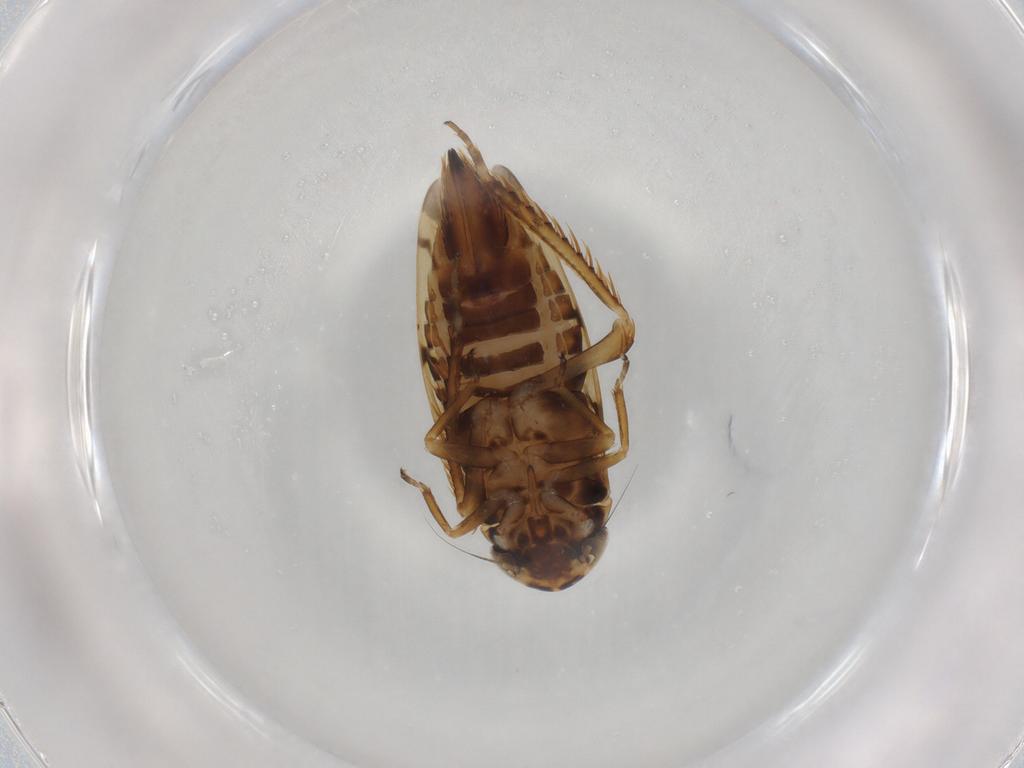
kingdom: Animalia
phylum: Arthropoda
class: Insecta
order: Hemiptera
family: Cicadellidae
